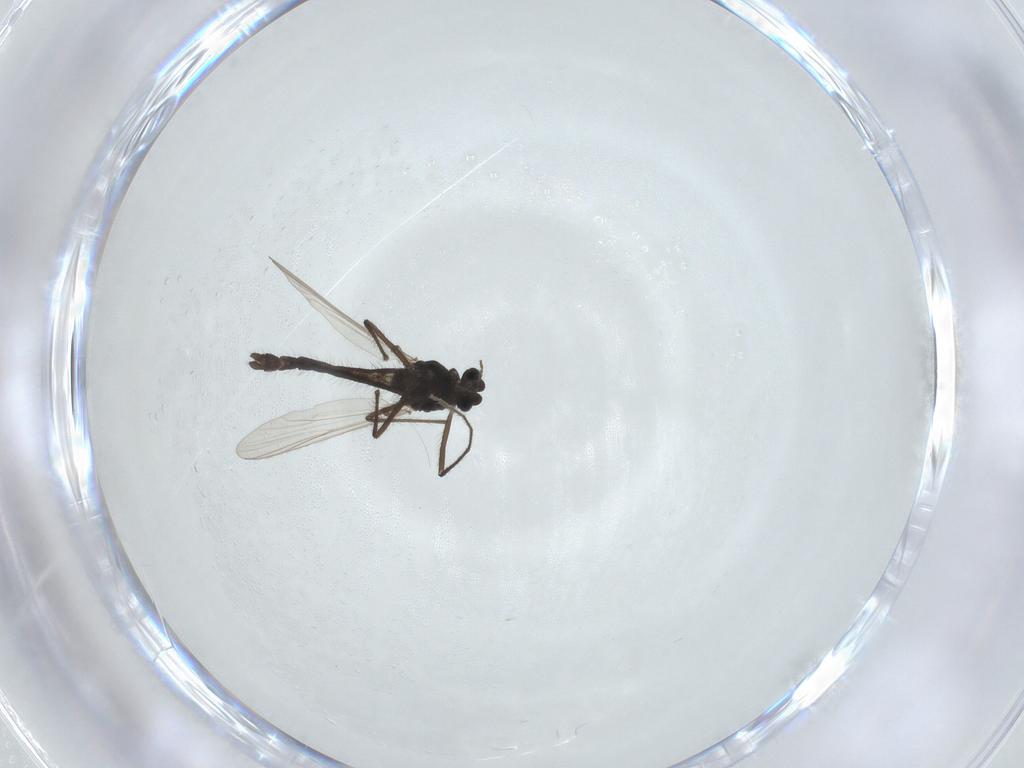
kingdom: Animalia
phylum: Arthropoda
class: Insecta
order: Diptera
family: Chironomidae
